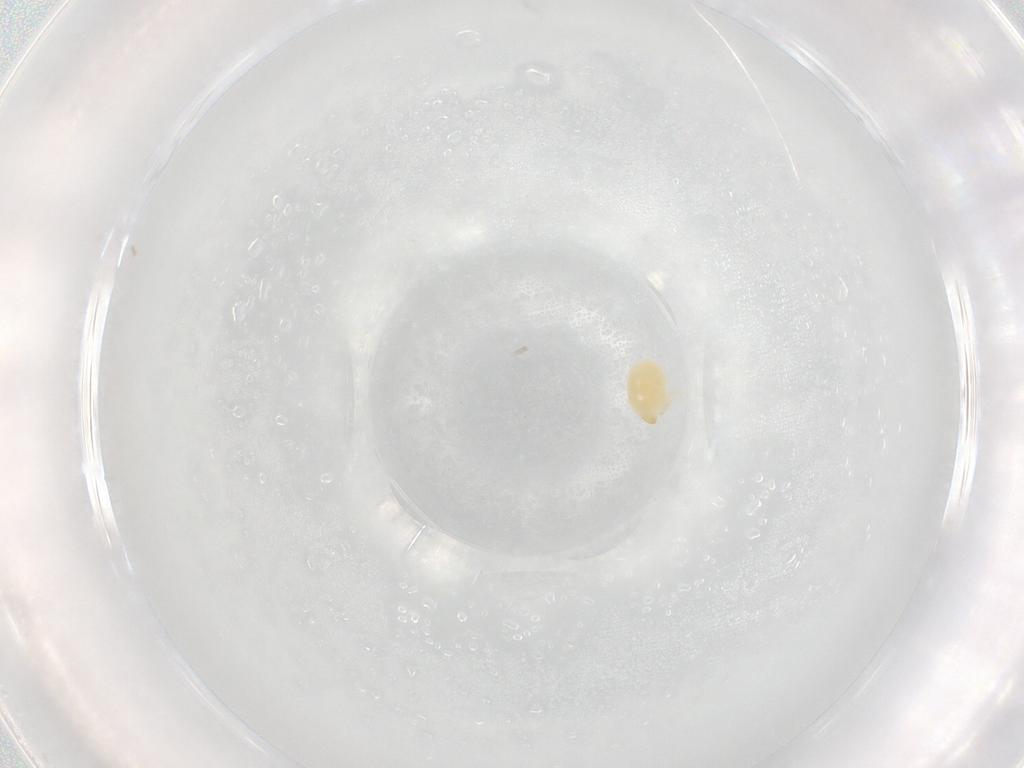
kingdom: Animalia
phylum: Arthropoda
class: Arachnida
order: Trombidiformes
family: Microtrombidiidae
